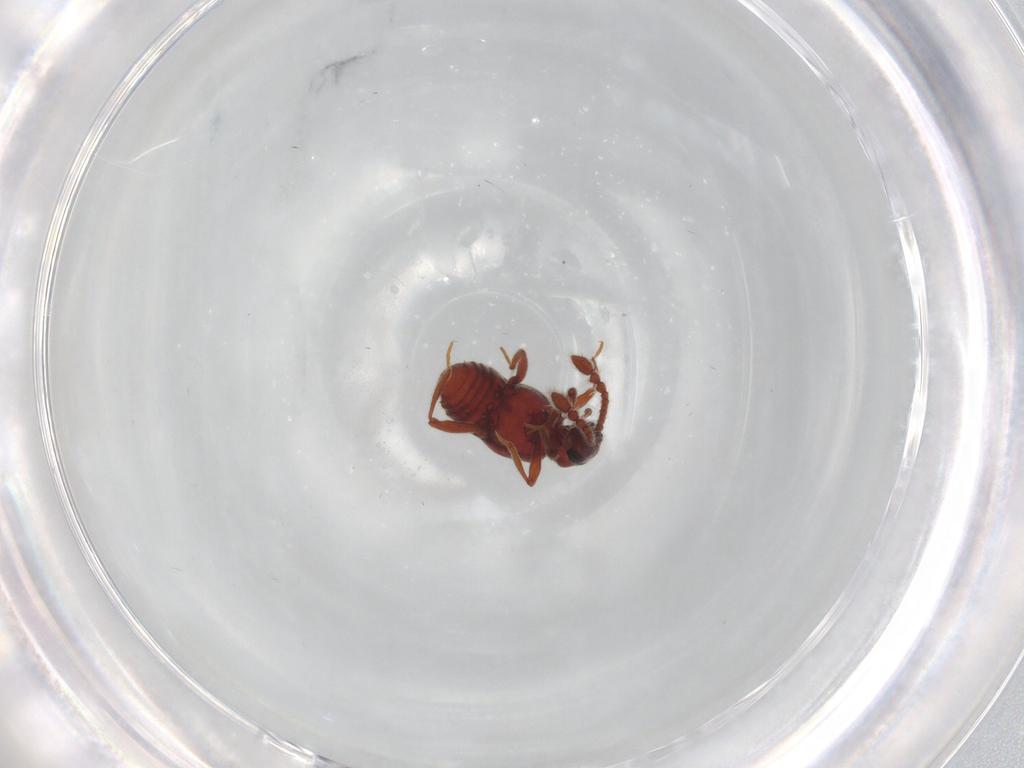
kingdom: Animalia
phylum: Arthropoda
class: Insecta
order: Coleoptera
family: Staphylinidae
